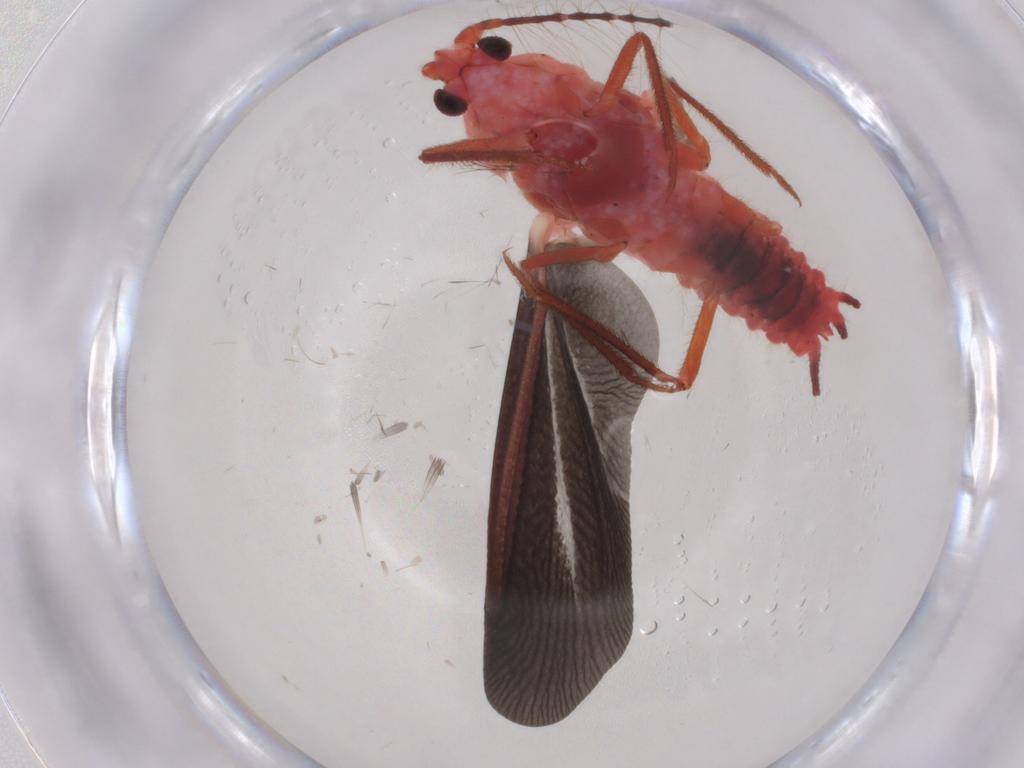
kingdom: Animalia
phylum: Arthropoda
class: Insecta
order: Hemiptera
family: Margarodidae
